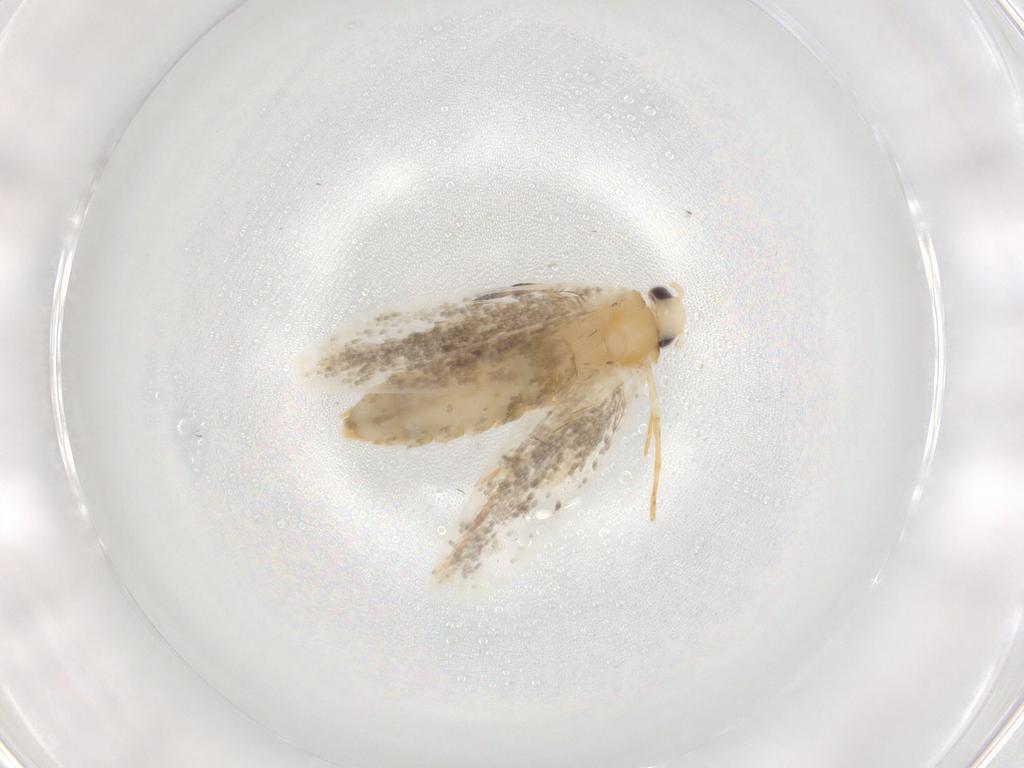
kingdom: Animalia
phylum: Arthropoda
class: Insecta
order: Lepidoptera
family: Tineidae
